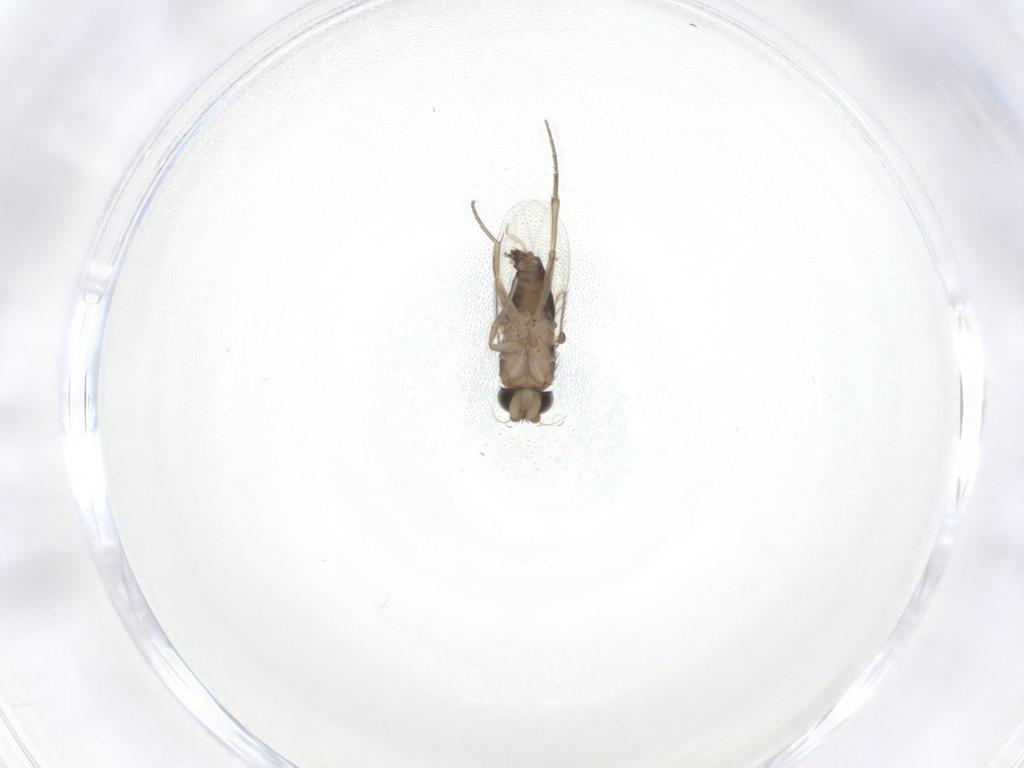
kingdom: Animalia
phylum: Arthropoda
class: Insecta
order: Diptera
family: Phoridae
